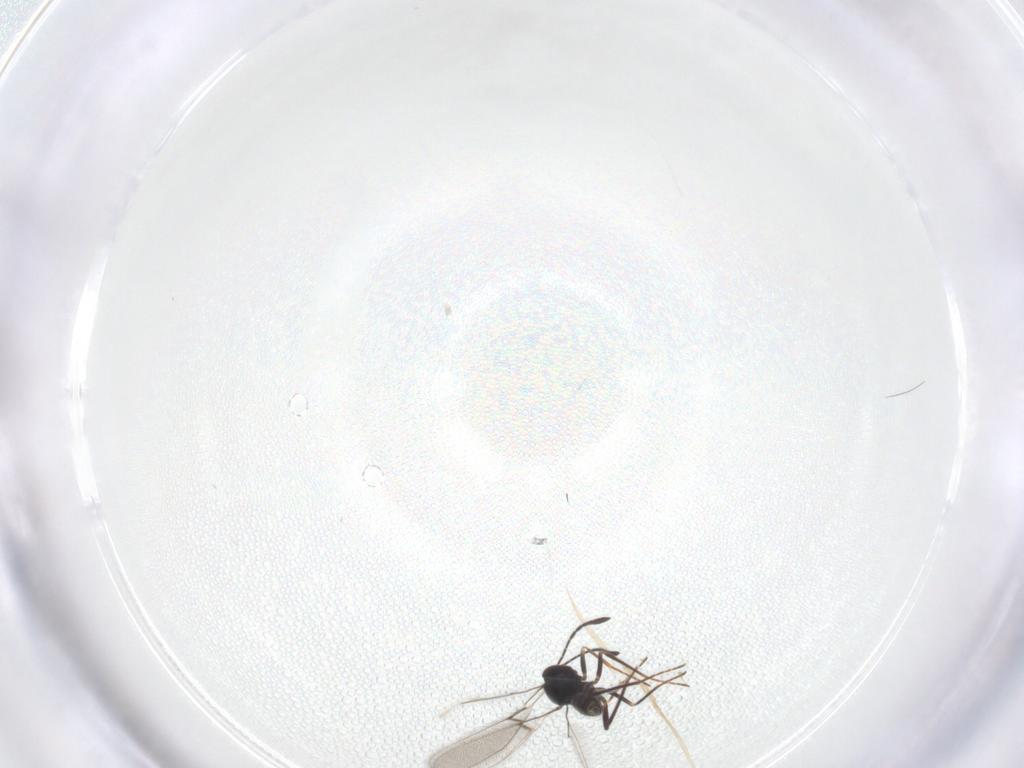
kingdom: Animalia
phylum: Arthropoda
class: Insecta
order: Hymenoptera
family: Mymaridae
